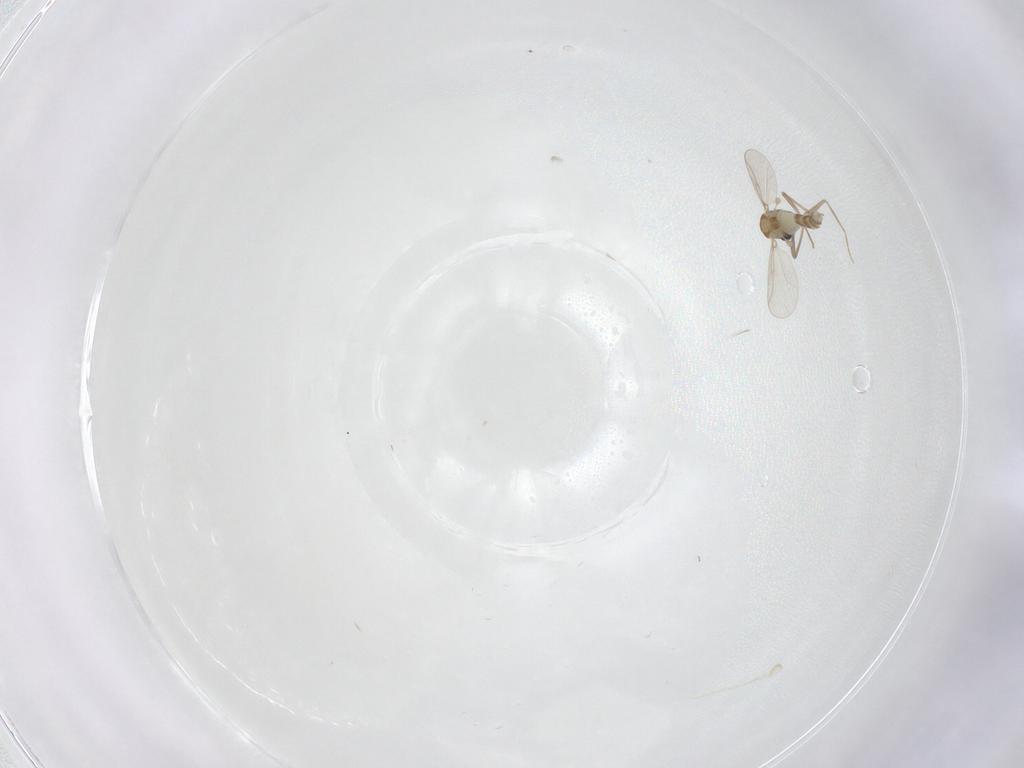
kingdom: Animalia
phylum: Arthropoda
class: Insecta
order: Diptera
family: Psychodidae
